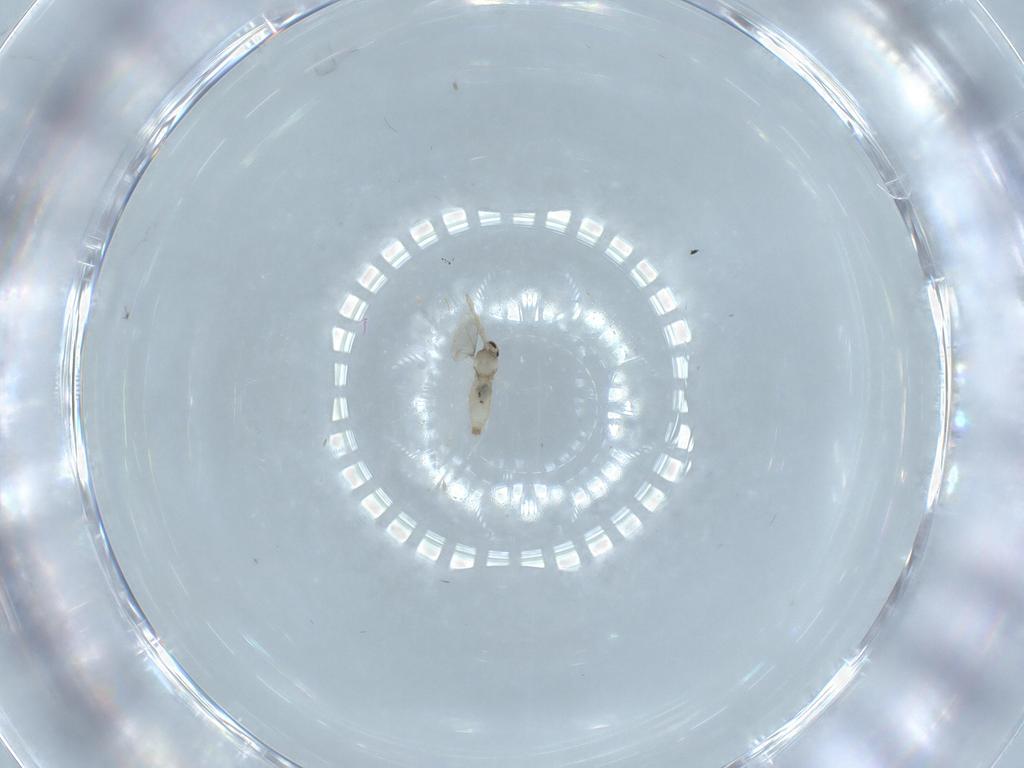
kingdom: Animalia
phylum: Arthropoda
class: Insecta
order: Diptera
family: Cecidomyiidae
